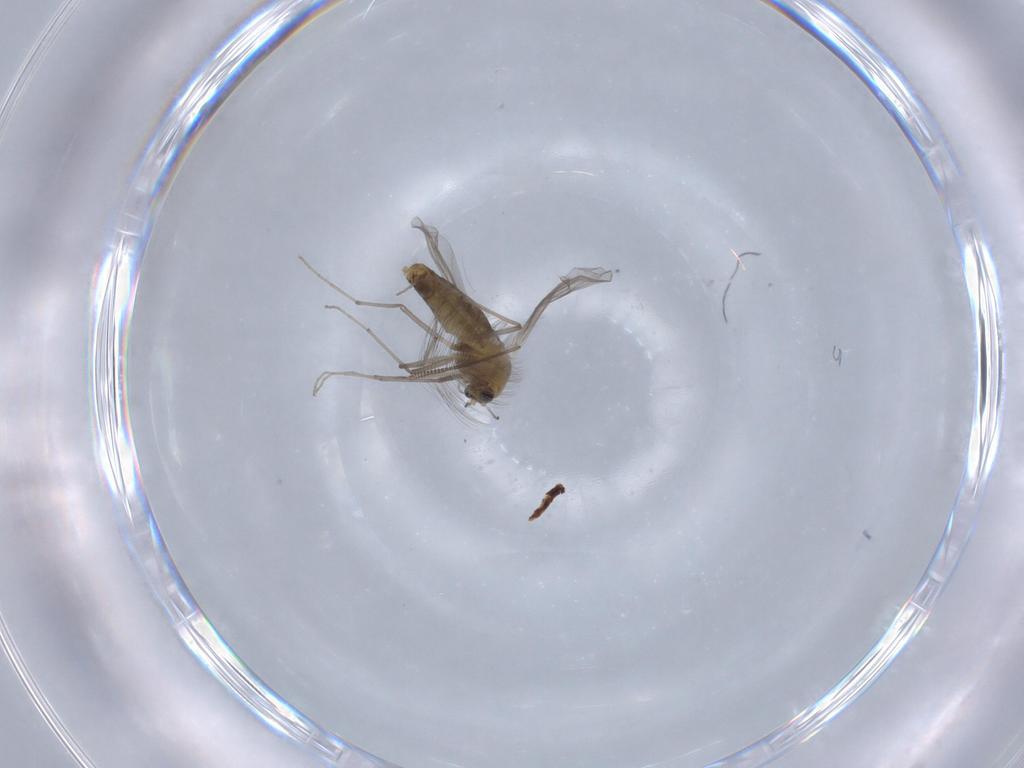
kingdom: Animalia
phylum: Arthropoda
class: Insecta
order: Diptera
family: Chironomidae
